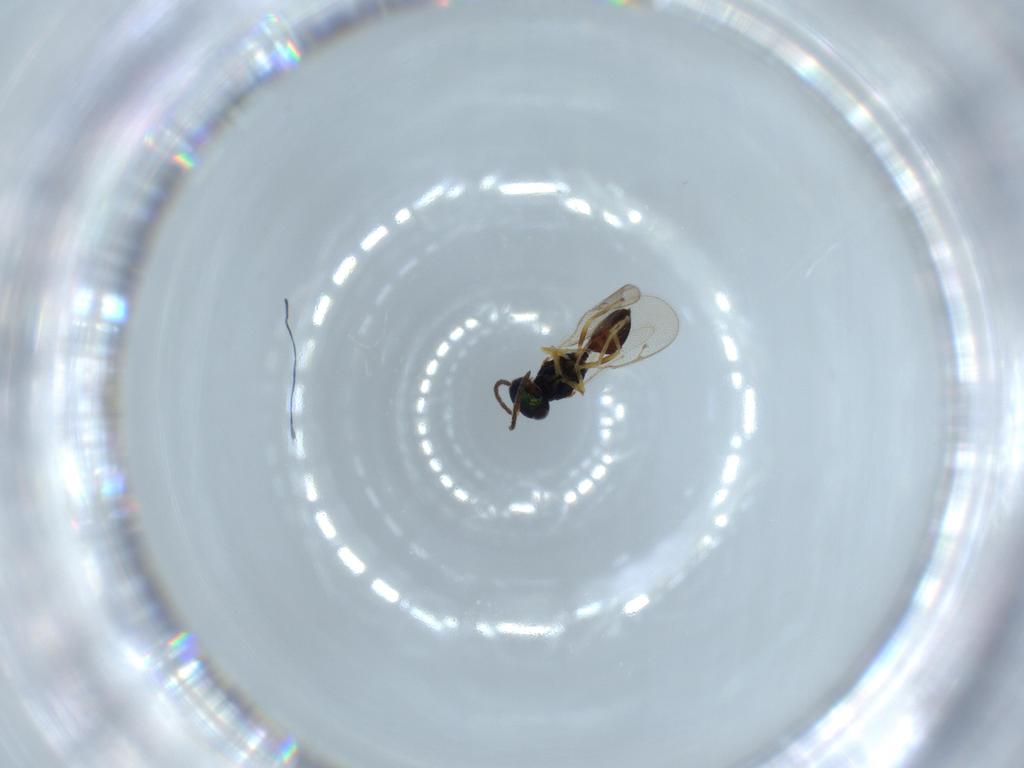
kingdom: Animalia
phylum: Arthropoda
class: Insecta
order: Hymenoptera
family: Pteromalidae
